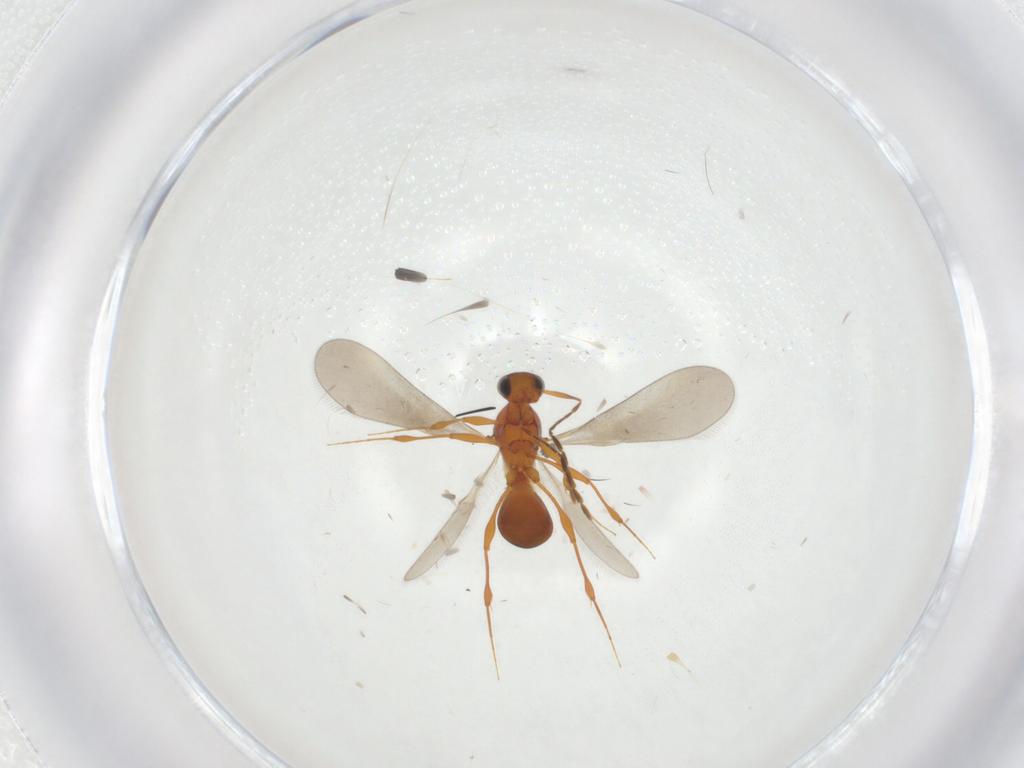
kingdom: Animalia
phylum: Arthropoda
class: Insecta
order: Hymenoptera
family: Platygastridae
